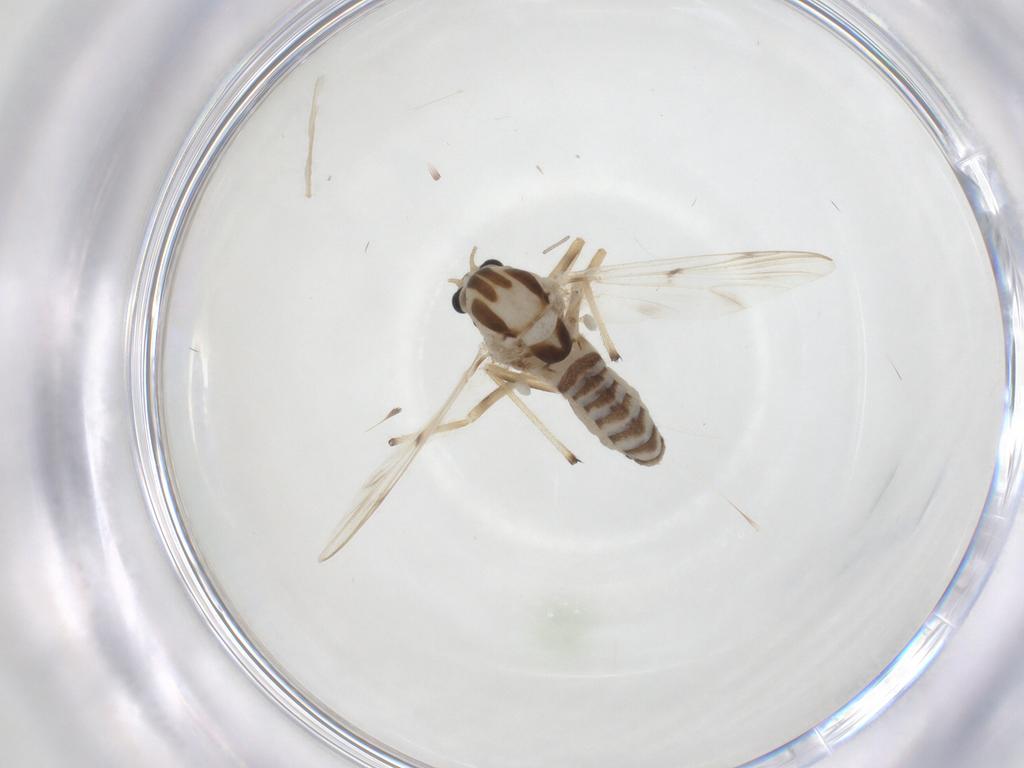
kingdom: Animalia
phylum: Arthropoda
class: Insecta
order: Diptera
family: Chironomidae
